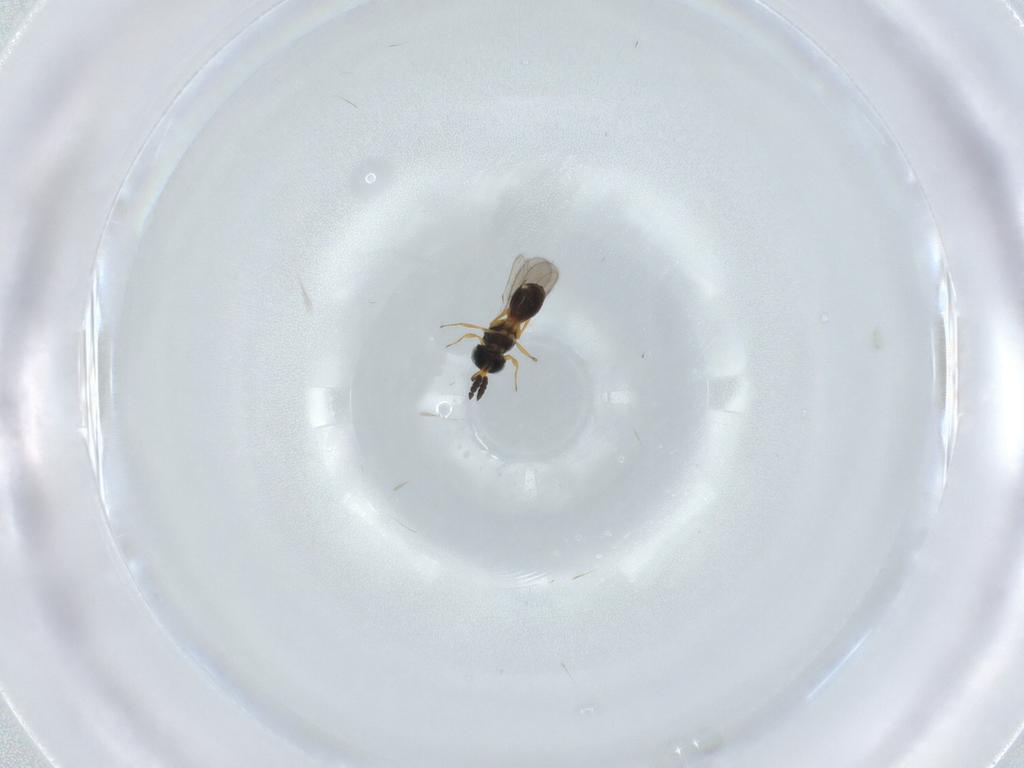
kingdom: Animalia
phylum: Arthropoda
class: Insecta
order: Hymenoptera
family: Scelionidae
